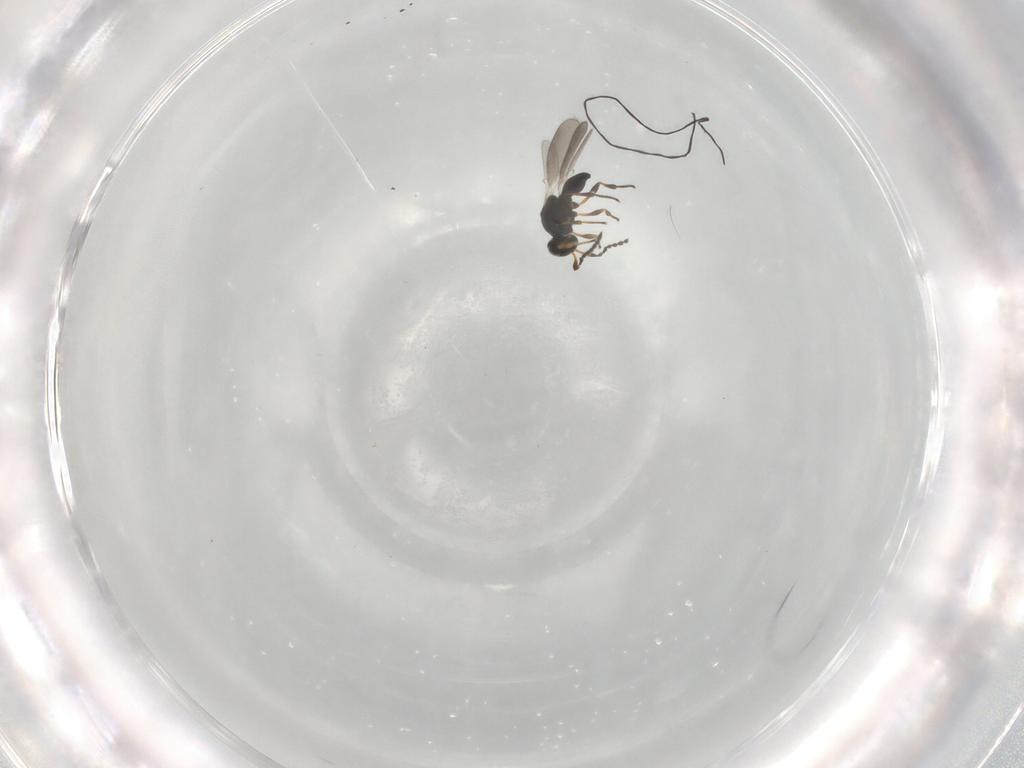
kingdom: Animalia
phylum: Arthropoda
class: Insecta
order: Hymenoptera
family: Platygastridae
